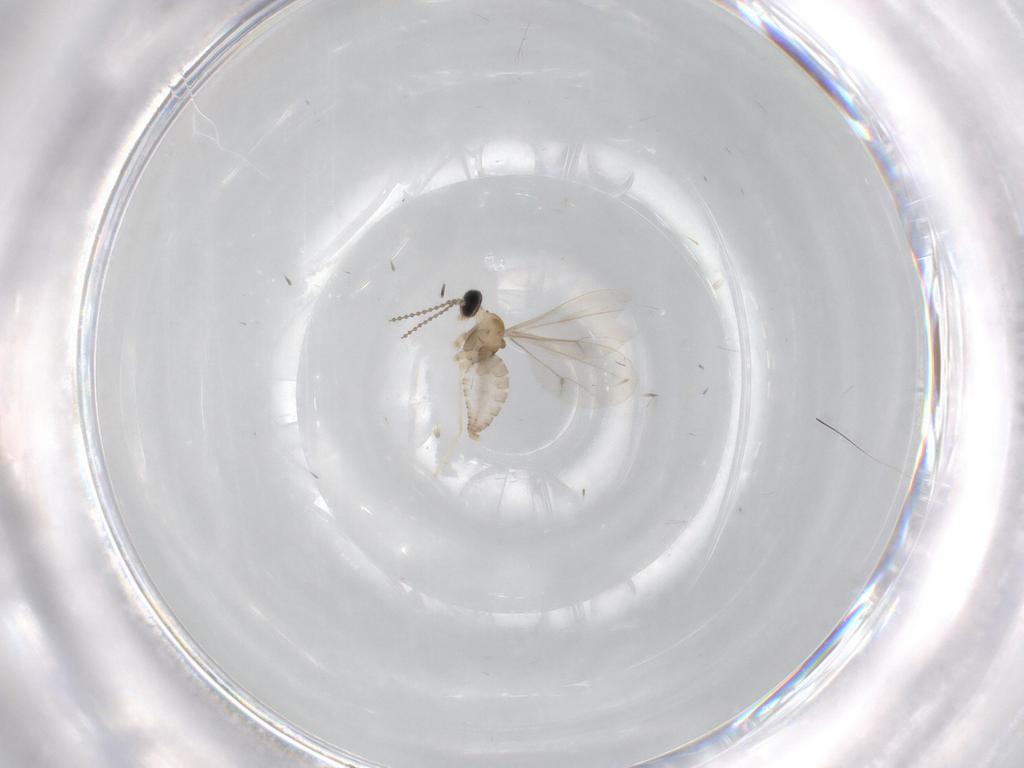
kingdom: Animalia
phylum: Arthropoda
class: Insecta
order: Diptera
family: Cecidomyiidae
